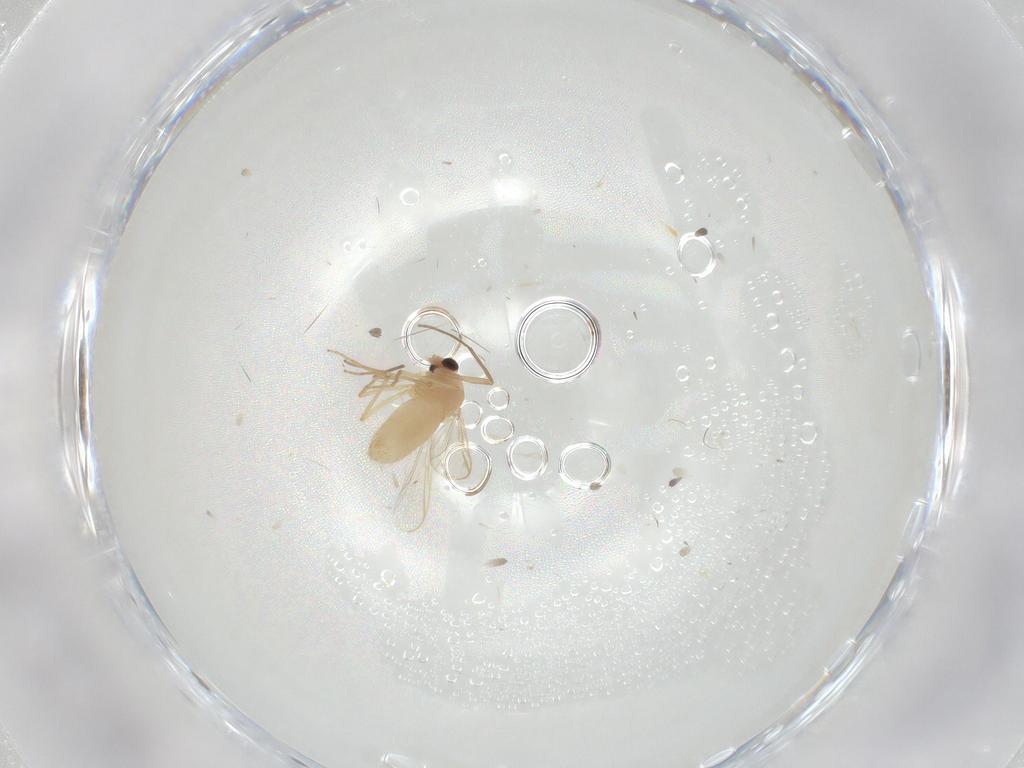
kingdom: Animalia
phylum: Arthropoda
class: Insecta
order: Diptera
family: Chironomidae
